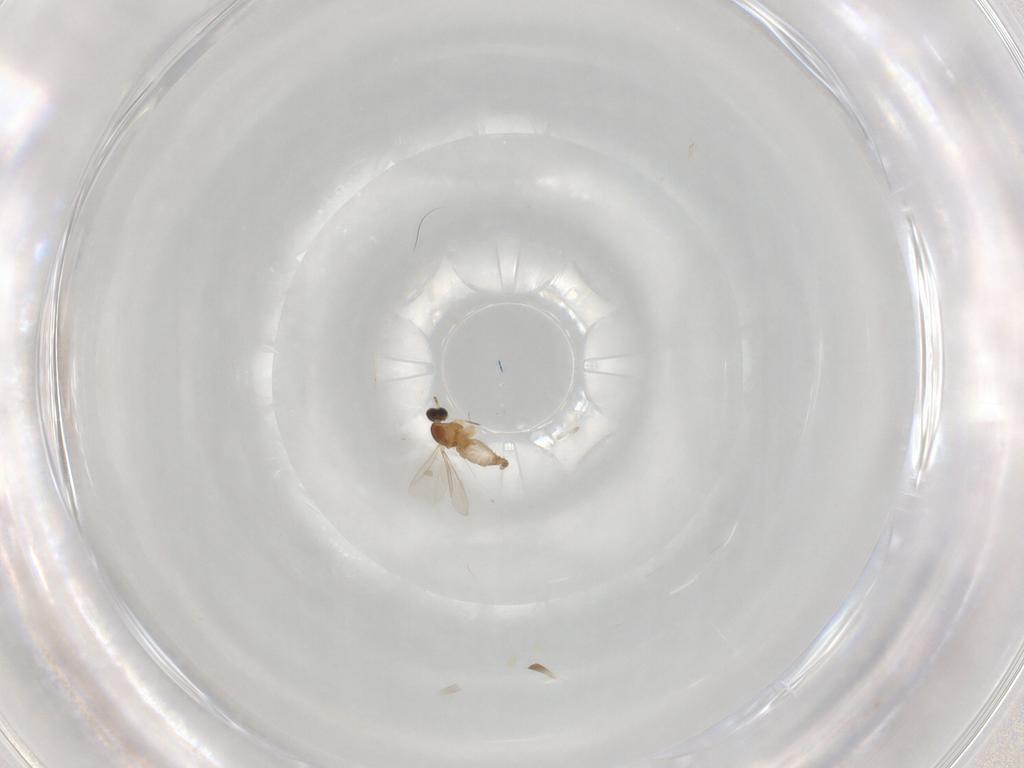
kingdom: Animalia
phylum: Arthropoda
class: Insecta
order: Diptera
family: Cecidomyiidae
